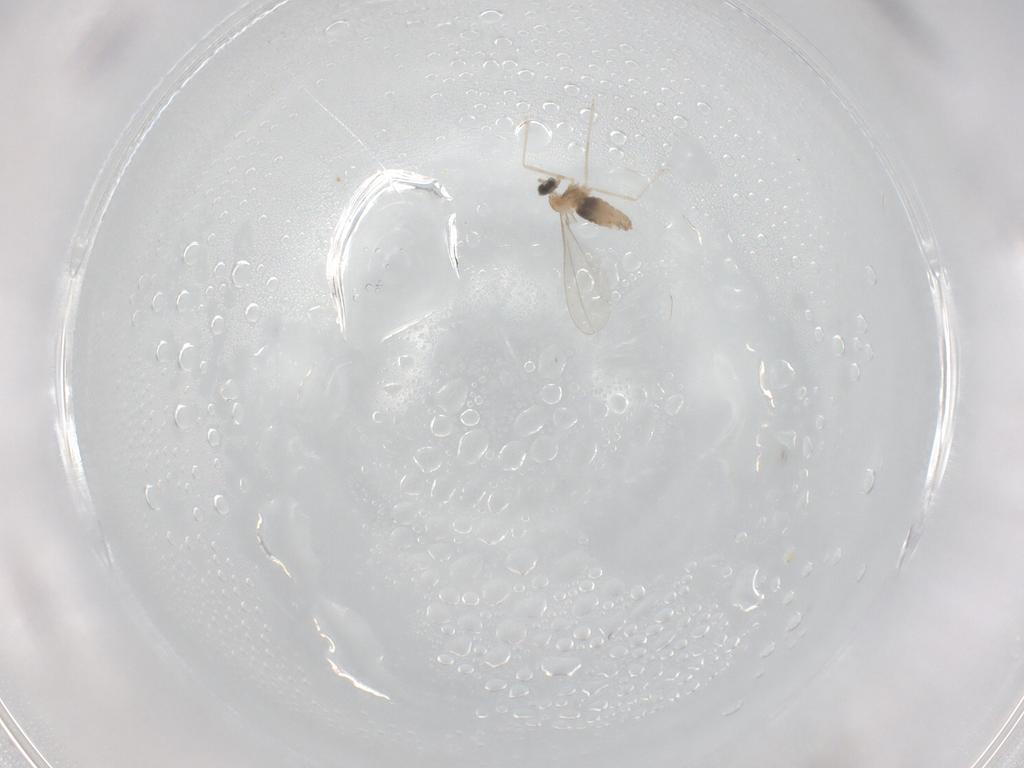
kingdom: Animalia
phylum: Arthropoda
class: Insecta
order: Diptera
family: Cecidomyiidae
